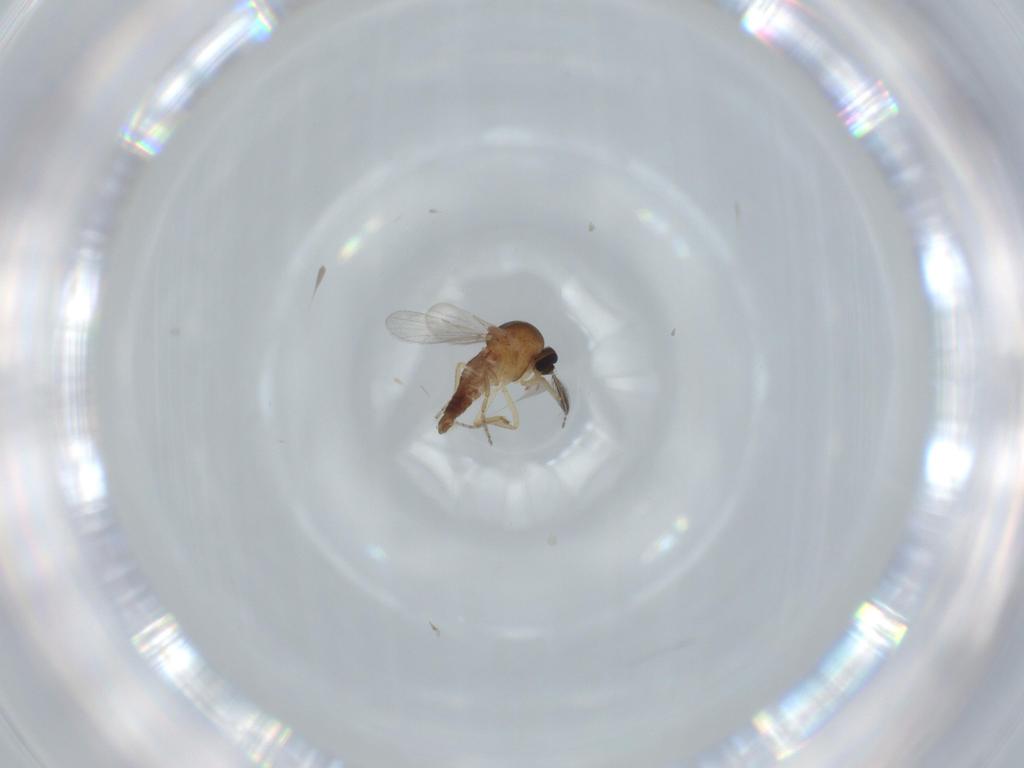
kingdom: Animalia
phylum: Arthropoda
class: Insecta
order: Diptera
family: Ceratopogonidae
